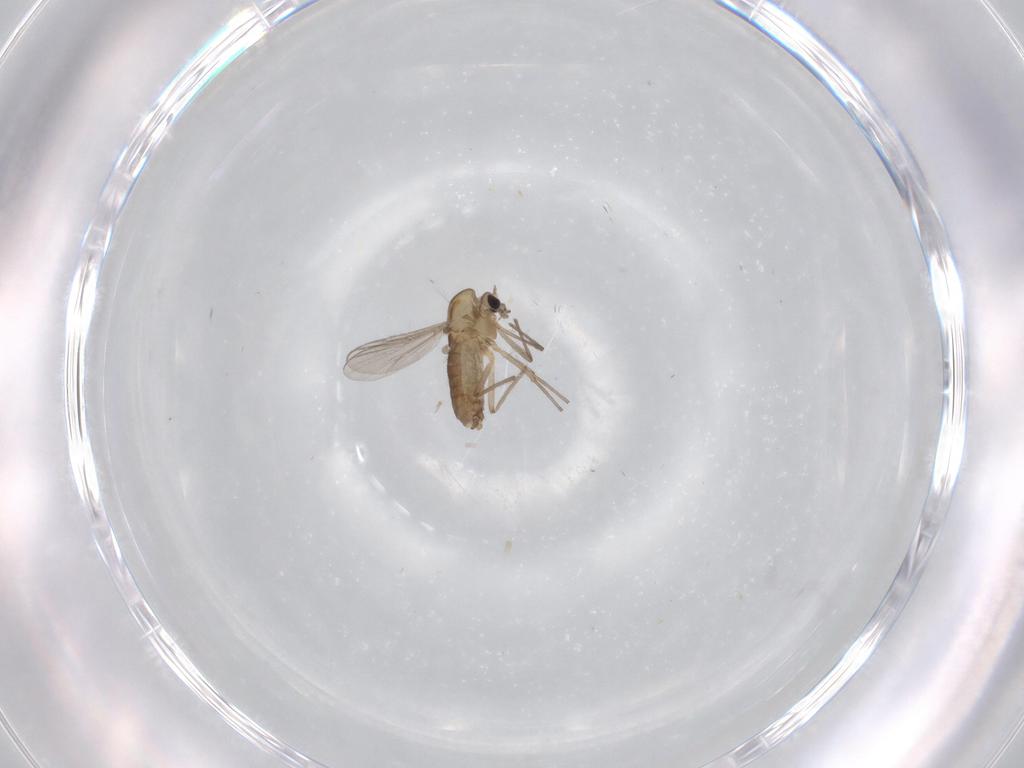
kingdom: Animalia
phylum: Arthropoda
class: Insecta
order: Diptera
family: Chironomidae
